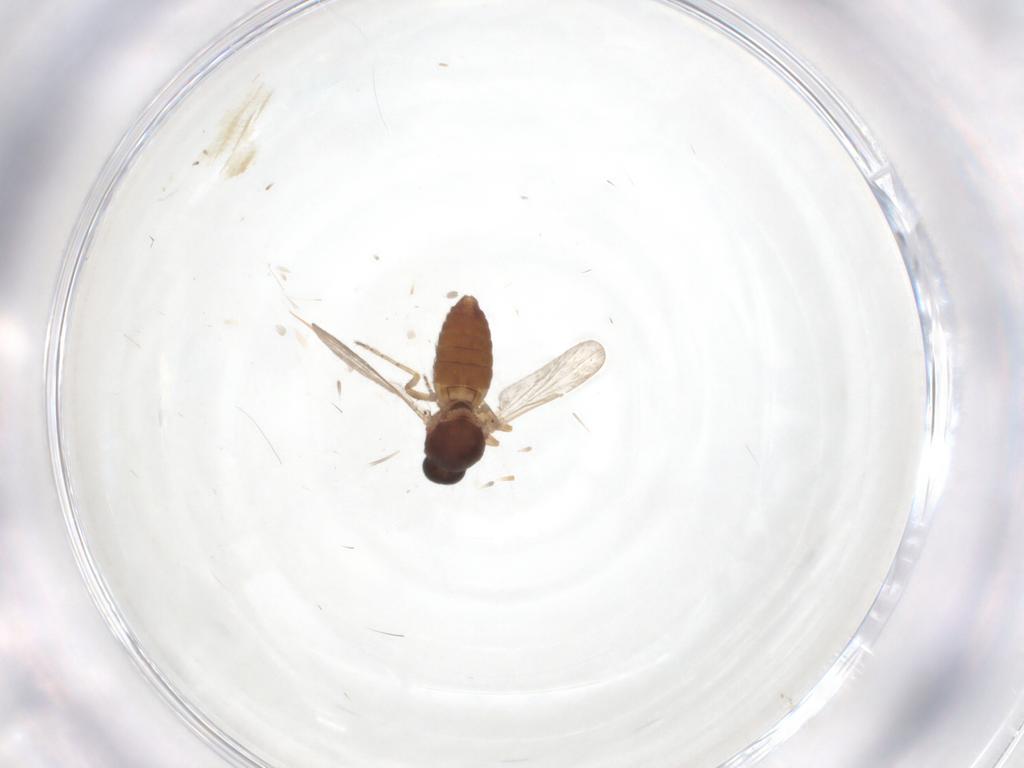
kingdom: Animalia
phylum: Arthropoda
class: Insecta
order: Diptera
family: Ceratopogonidae
